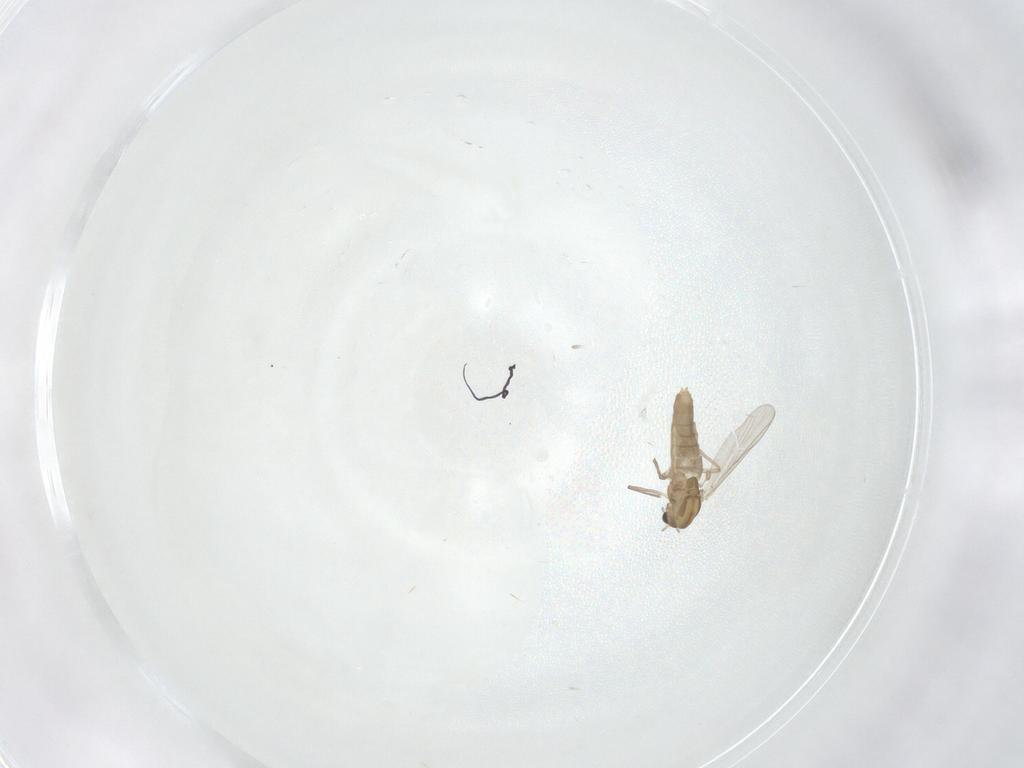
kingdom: Animalia
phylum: Arthropoda
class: Insecta
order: Diptera
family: Chironomidae
